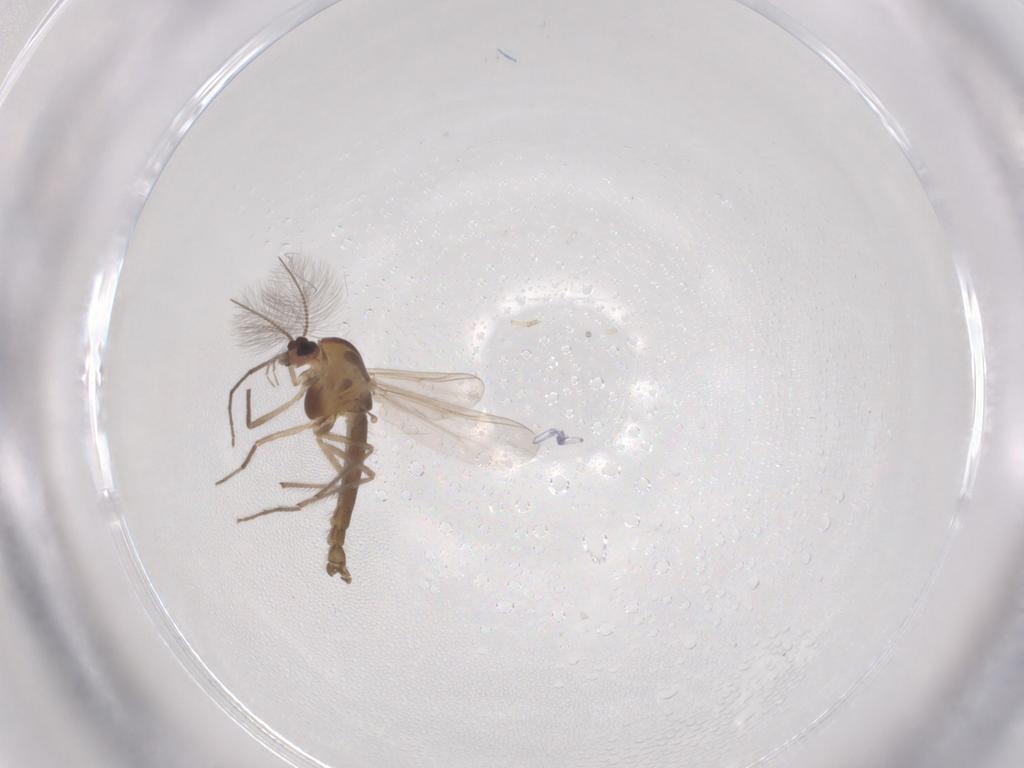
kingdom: Animalia
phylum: Arthropoda
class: Insecta
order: Diptera
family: Chironomidae
